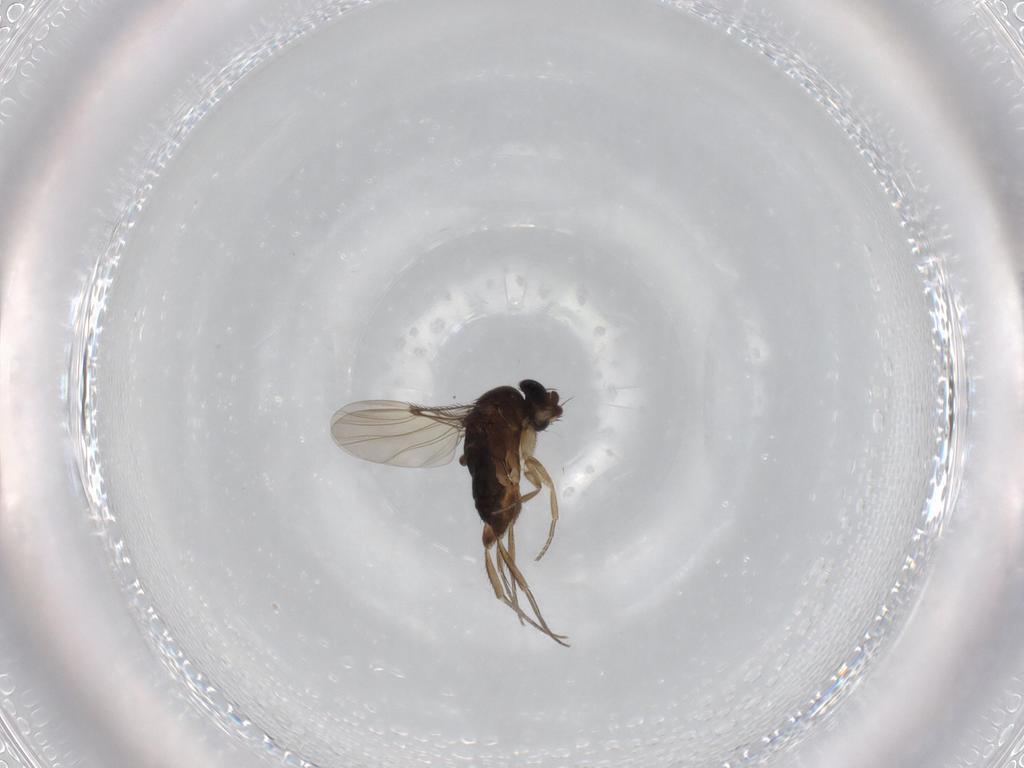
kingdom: Animalia
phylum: Arthropoda
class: Insecta
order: Diptera
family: Phoridae
